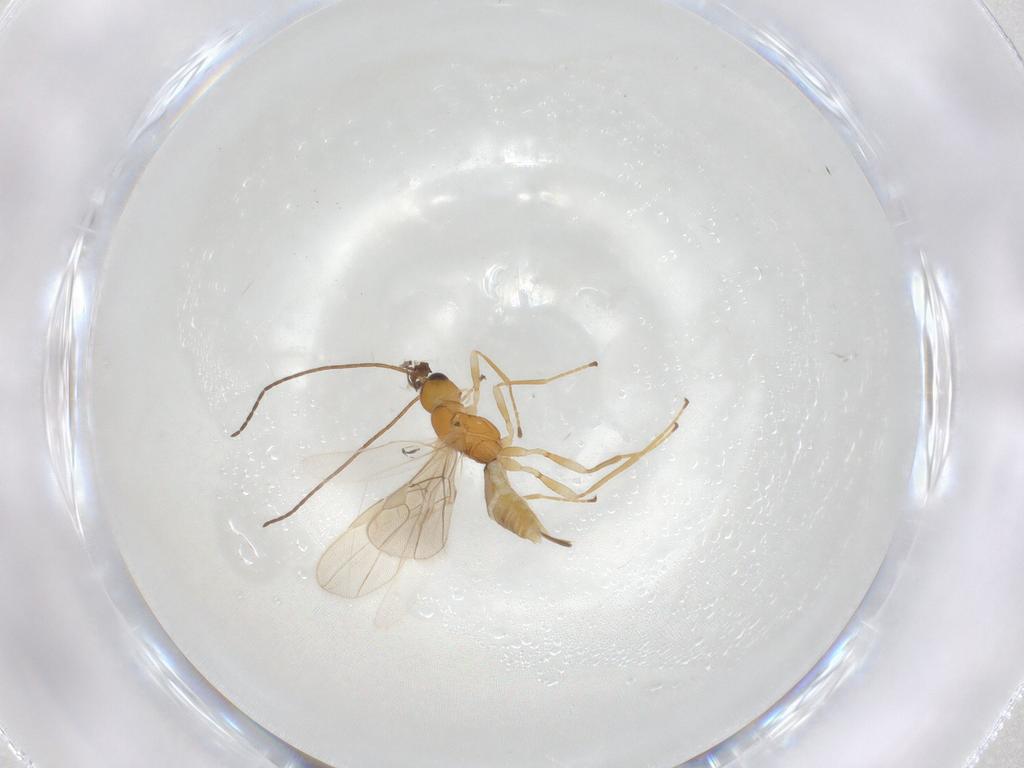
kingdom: Animalia
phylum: Arthropoda
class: Insecta
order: Hymenoptera
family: Braconidae
